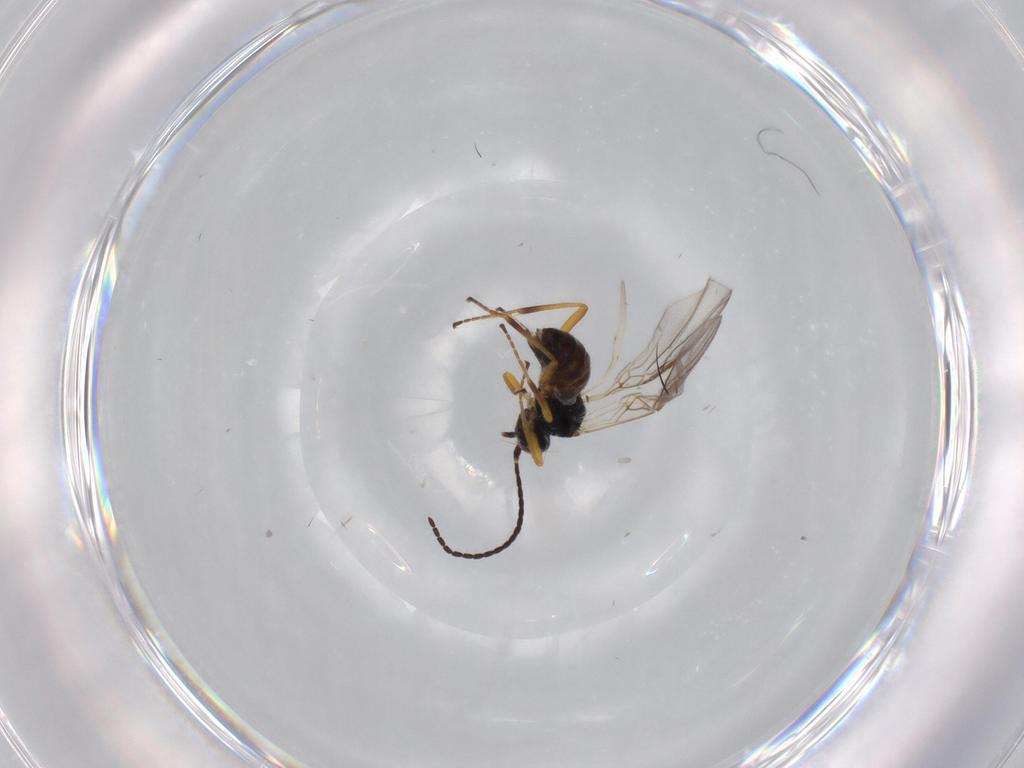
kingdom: Animalia
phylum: Arthropoda
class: Insecta
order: Hymenoptera
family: Braconidae
